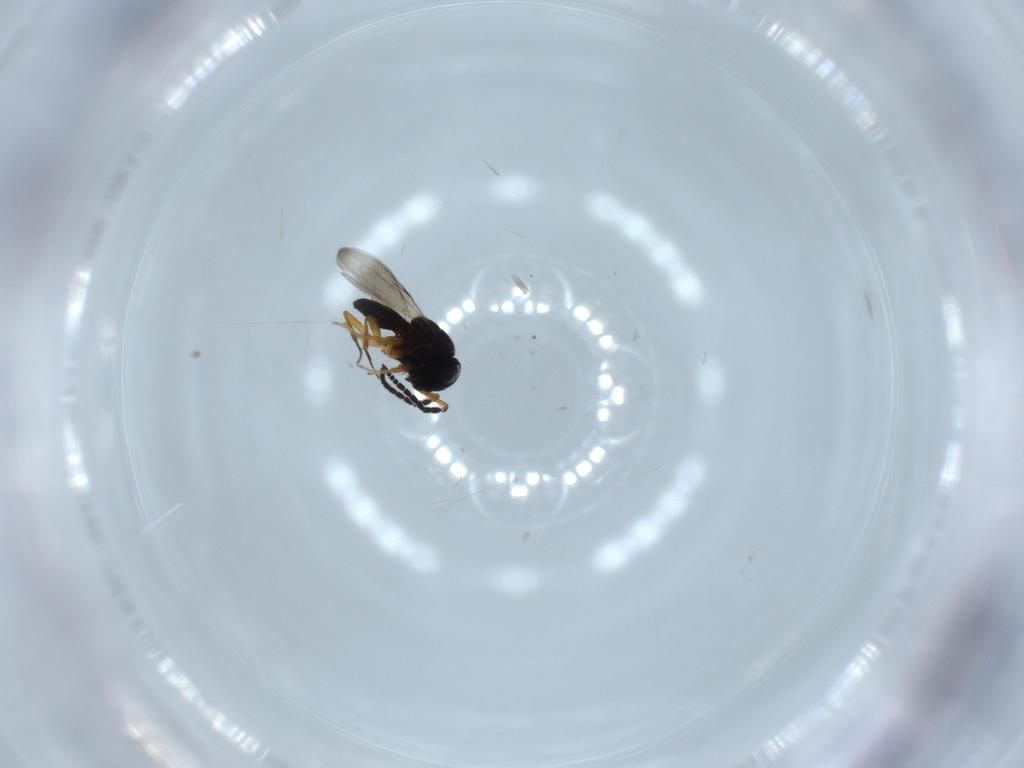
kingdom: Animalia
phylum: Arthropoda
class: Insecta
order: Hymenoptera
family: Scelionidae
